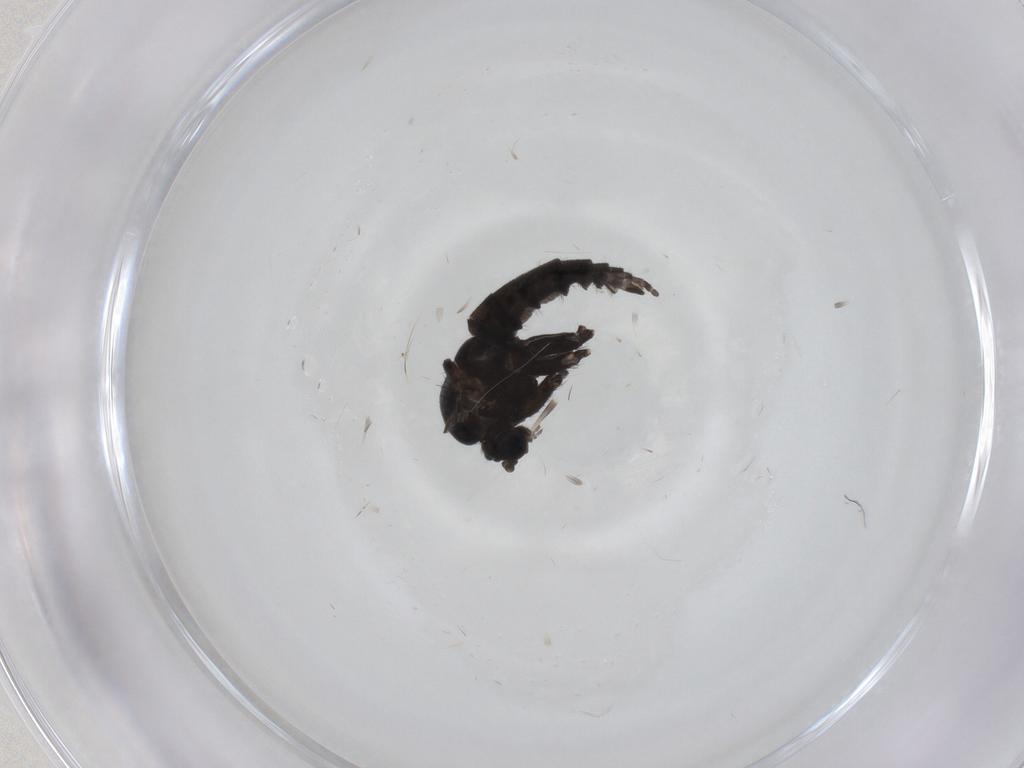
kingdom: Animalia
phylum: Arthropoda
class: Insecta
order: Diptera
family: Sciaridae
